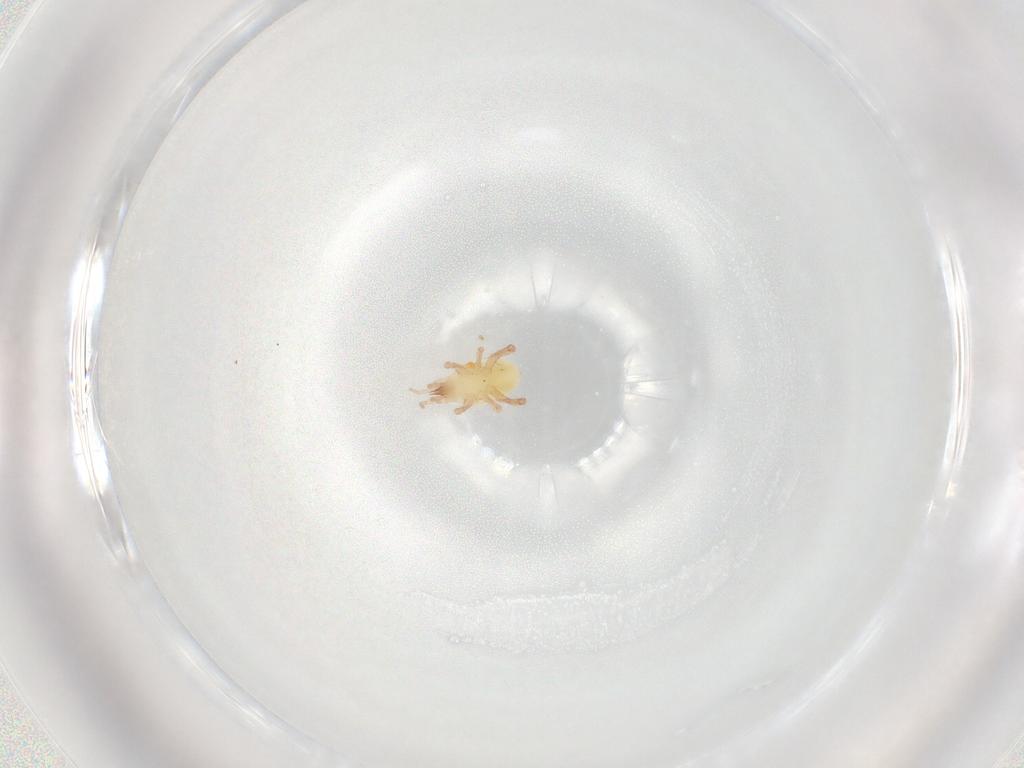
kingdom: Animalia
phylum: Arthropoda
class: Arachnida
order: Mesostigmata
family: Arctacaridae
